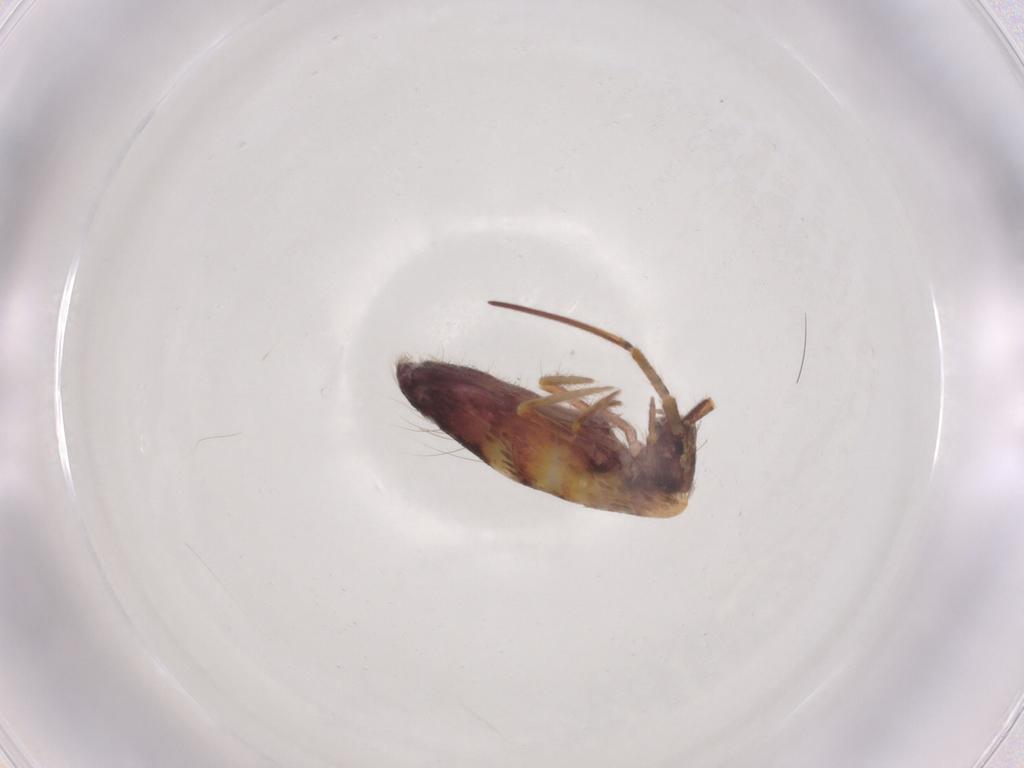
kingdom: Animalia
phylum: Arthropoda
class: Collembola
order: Entomobryomorpha
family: Entomobryidae
